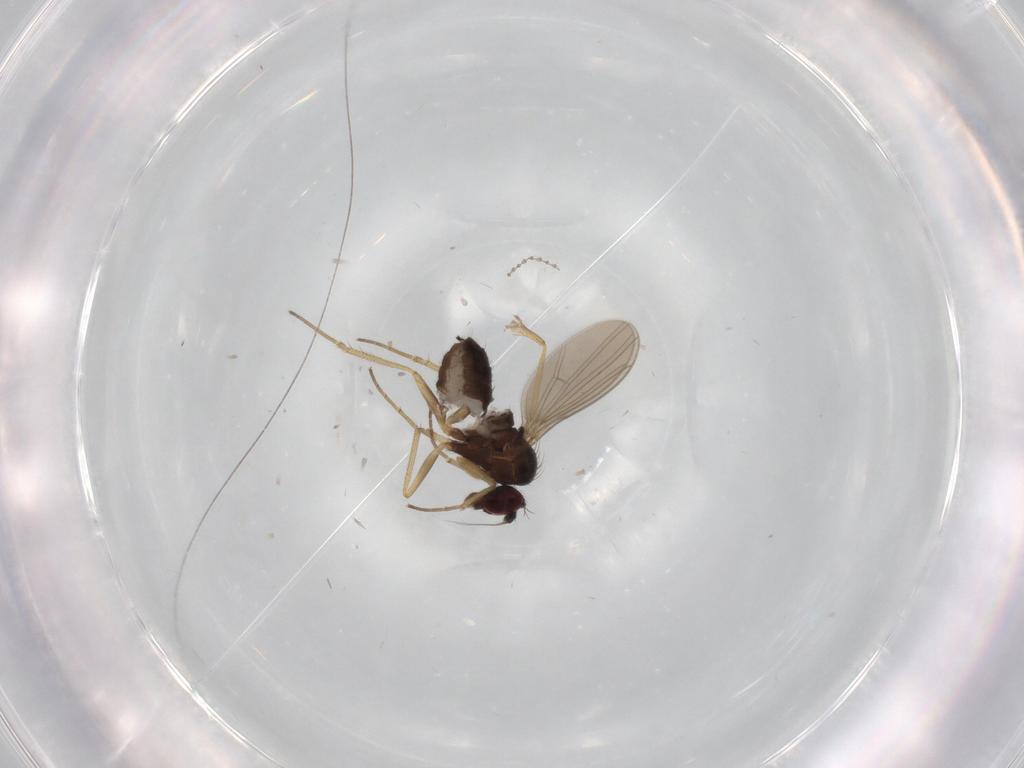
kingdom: Animalia
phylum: Arthropoda
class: Insecta
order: Diptera
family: Dolichopodidae
